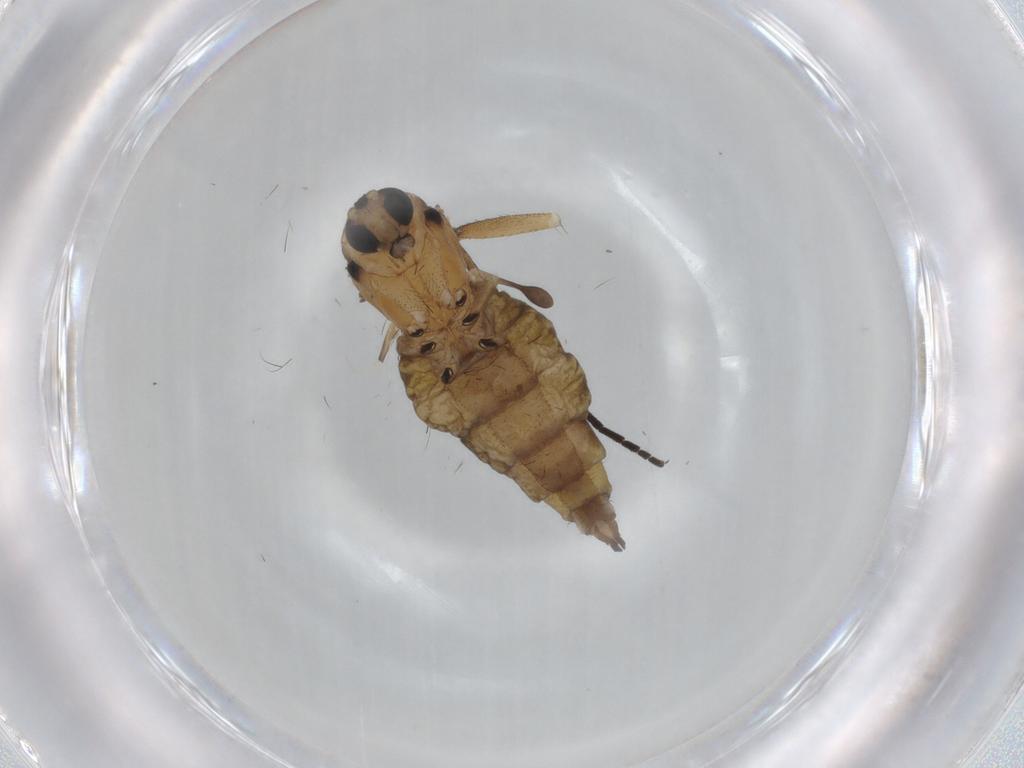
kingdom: Animalia
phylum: Arthropoda
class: Insecta
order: Diptera
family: Sciaridae
